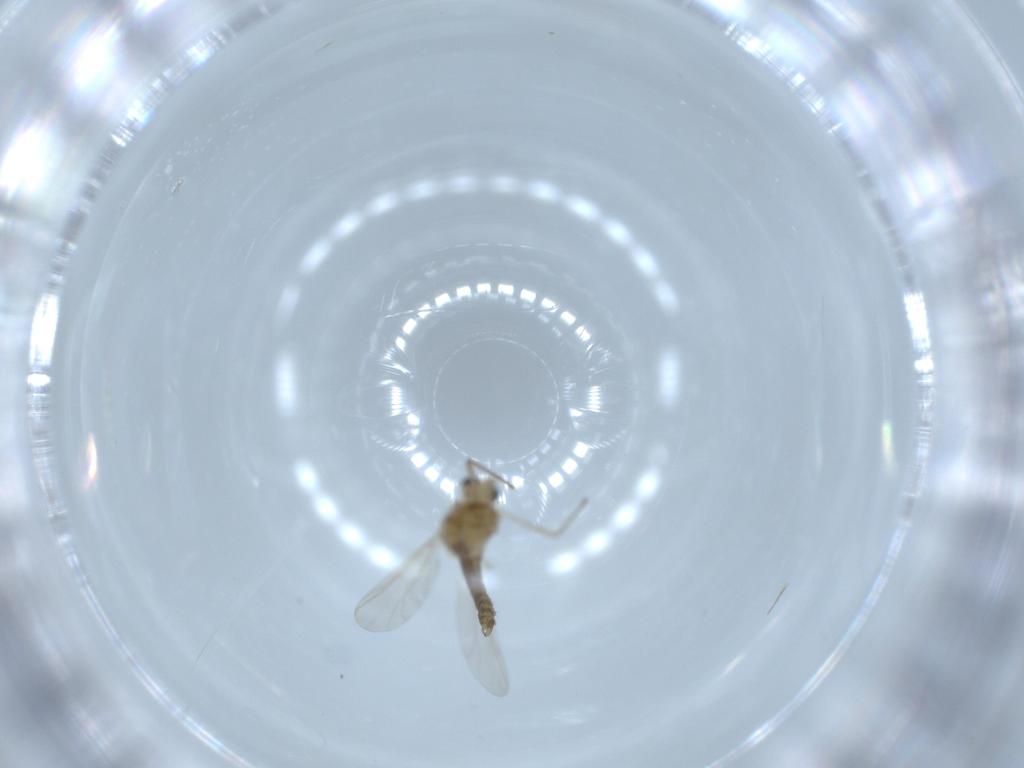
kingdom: Animalia
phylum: Arthropoda
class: Insecta
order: Diptera
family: Chironomidae
